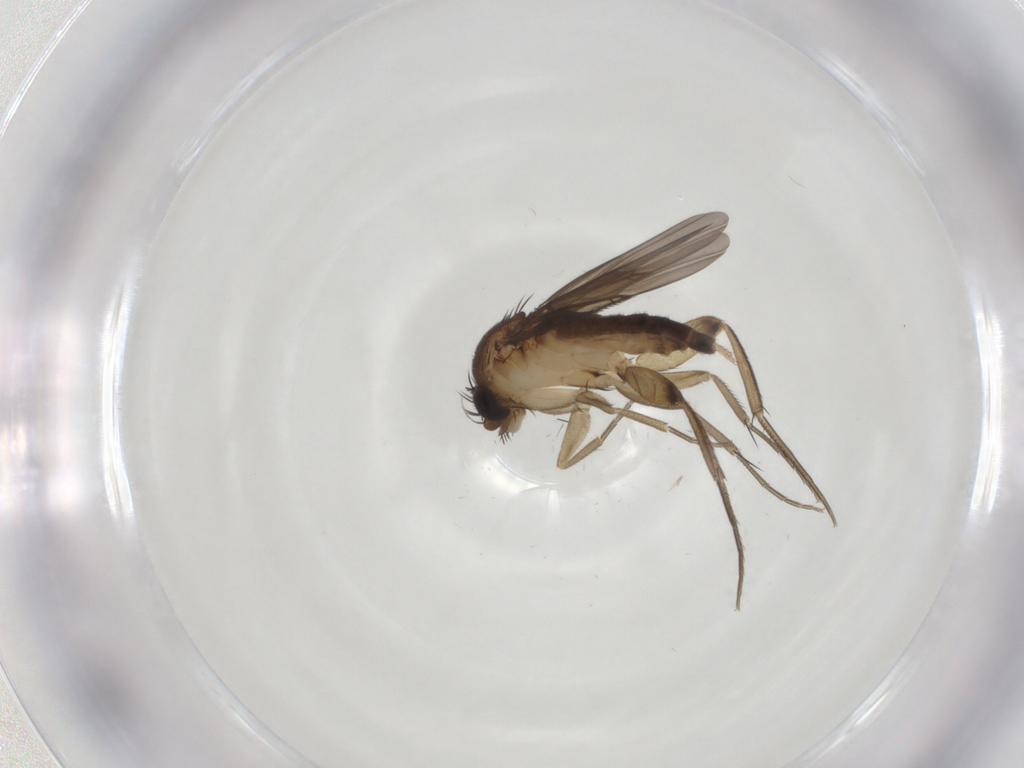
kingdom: Animalia
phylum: Arthropoda
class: Insecta
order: Diptera
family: Phoridae
